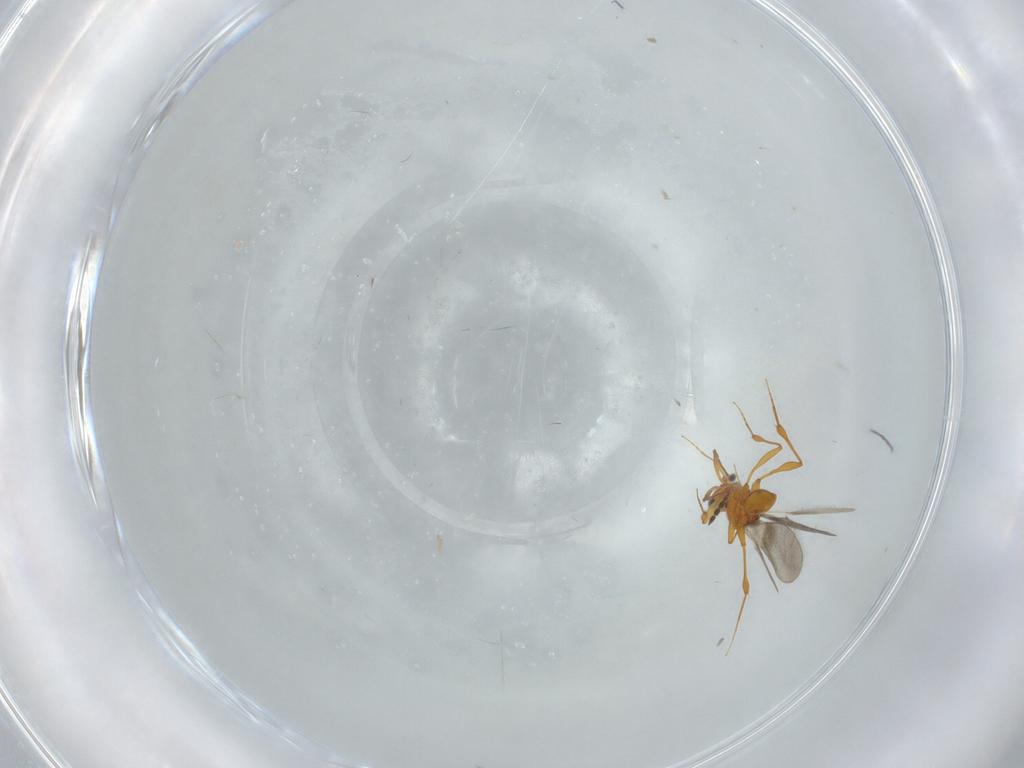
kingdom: Animalia
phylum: Arthropoda
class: Insecta
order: Hymenoptera
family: Platygastridae
